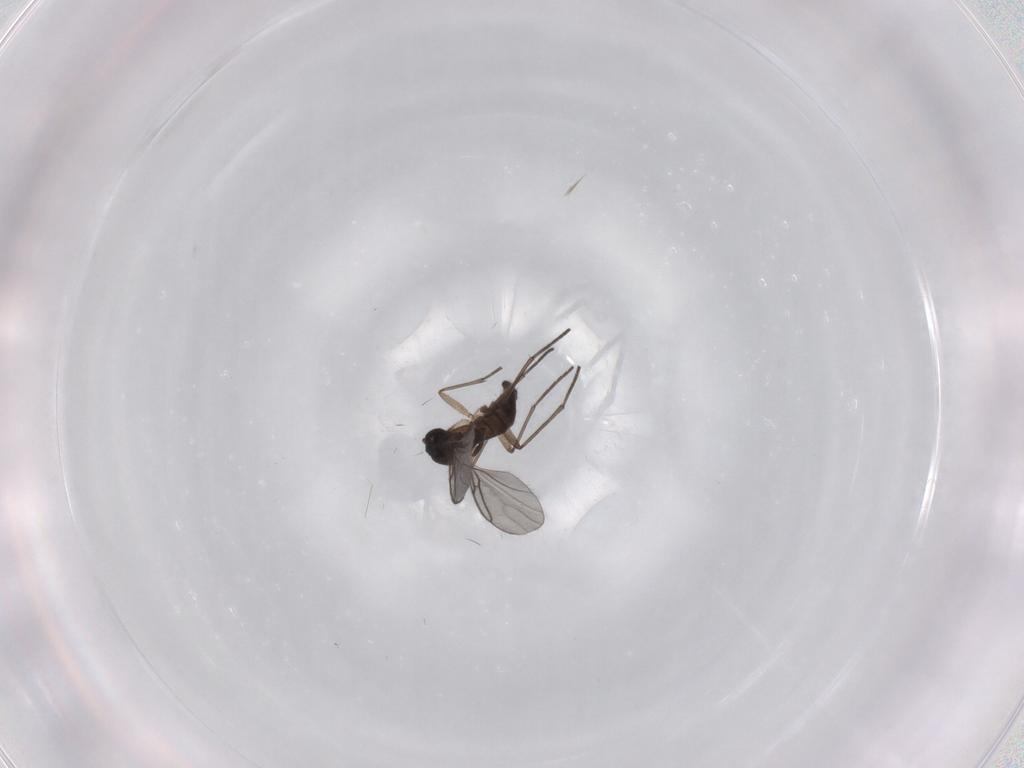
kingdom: Animalia
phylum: Arthropoda
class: Insecta
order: Diptera
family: Sciaridae
